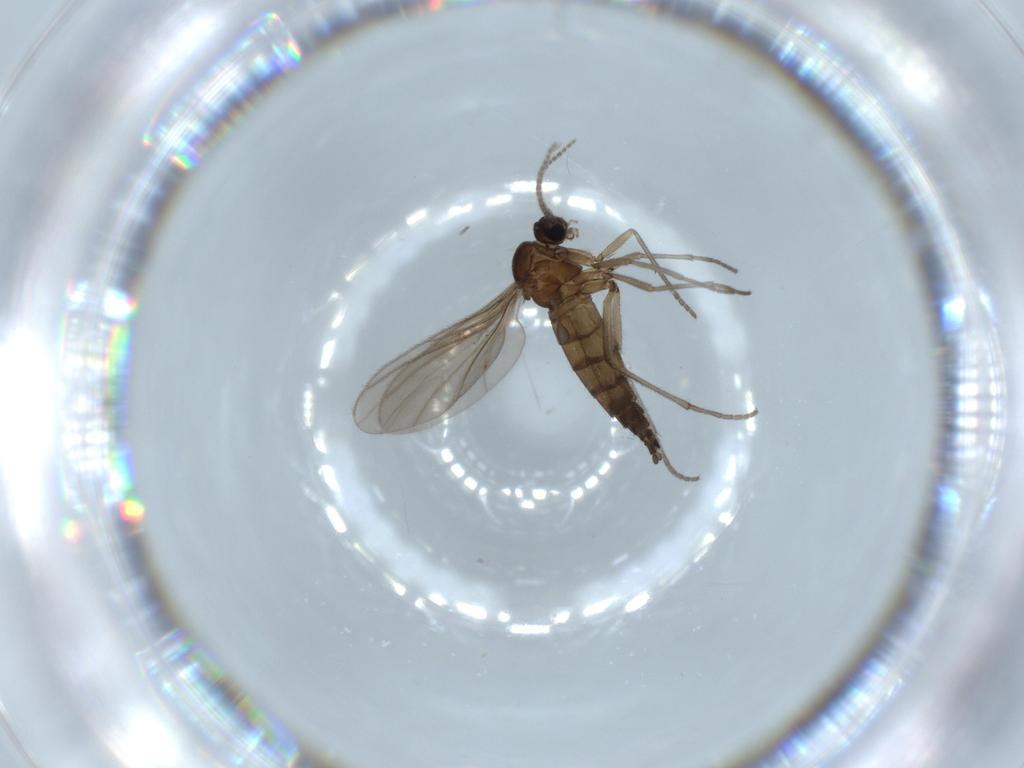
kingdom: Animalia
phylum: Arthropoda
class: Insecta
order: Diptera
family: Sciaridae
